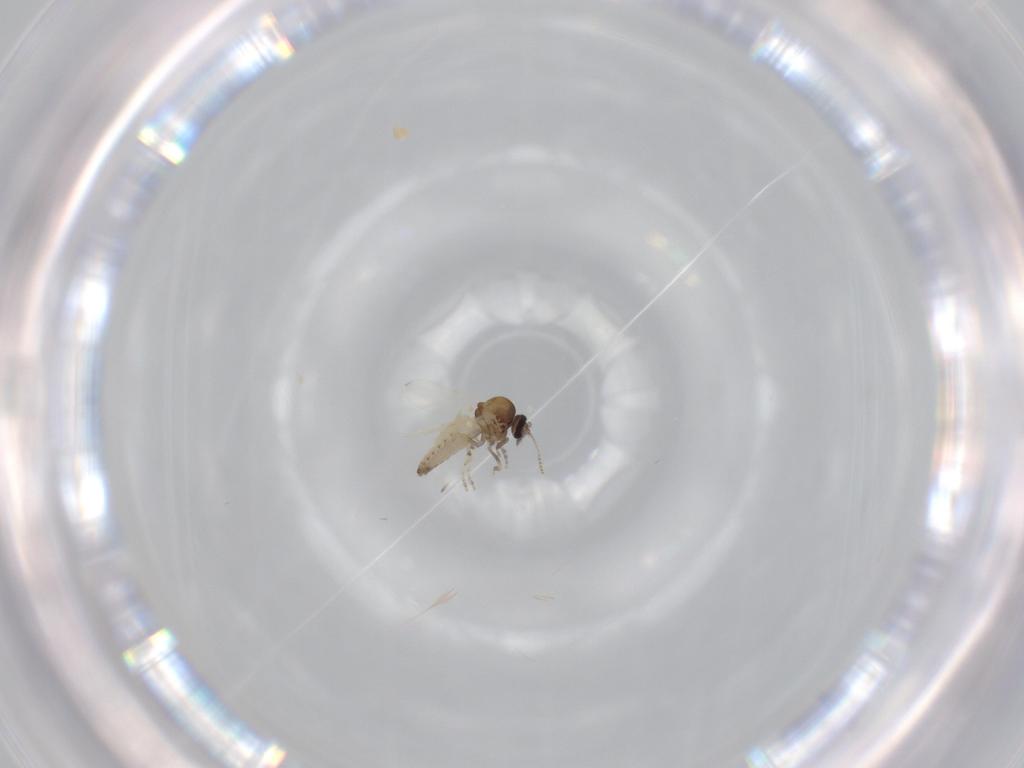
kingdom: Animalia
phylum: Arthropoda
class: Insecta
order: Diptera
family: Ceratopogonidae
